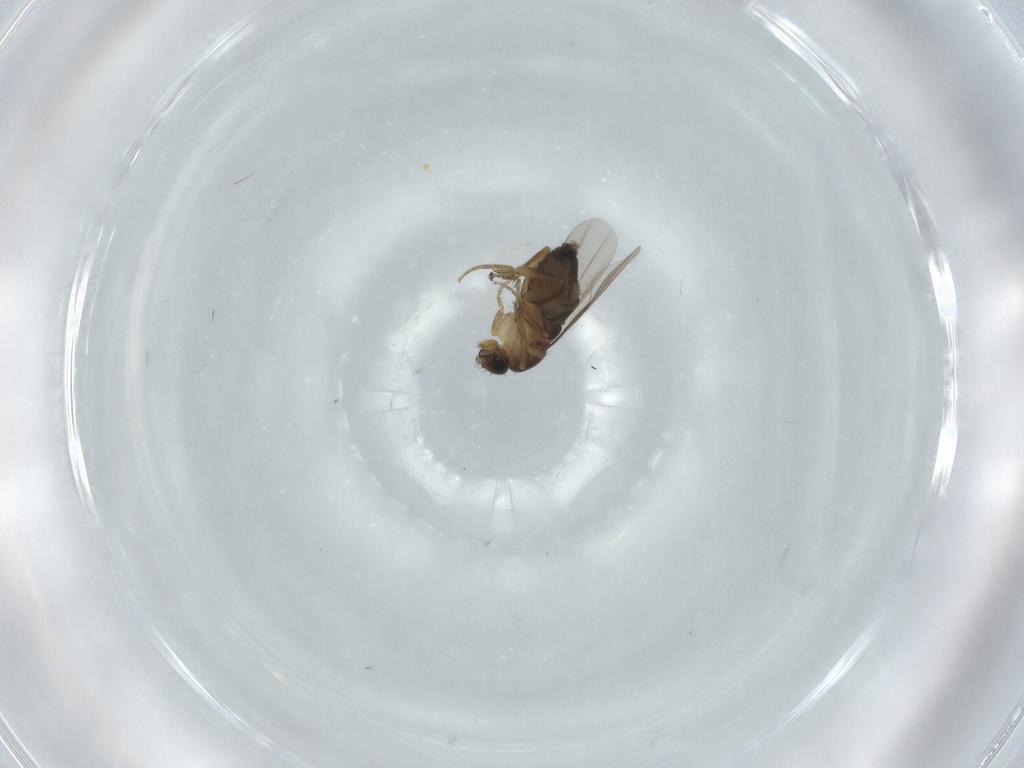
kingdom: Animalia
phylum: Arthropoda
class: Insecta
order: Diptera
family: Phoridae
